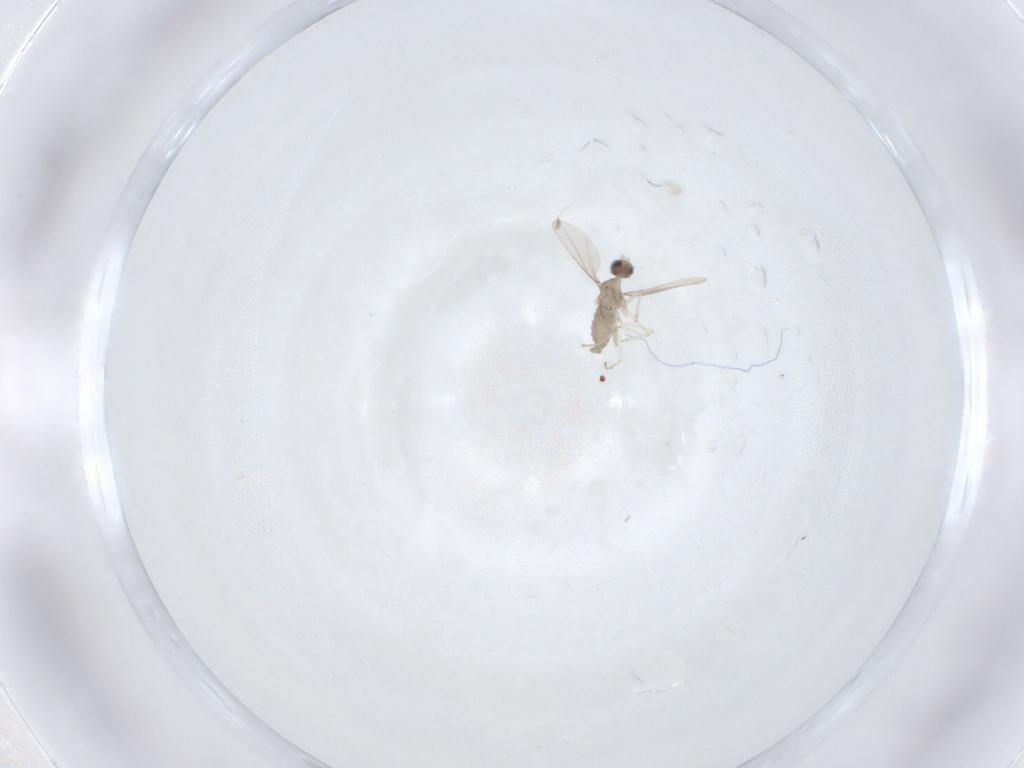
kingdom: Animalia
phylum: Arthropoda
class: Insecta
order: Diptera
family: Cecidomyiidae
